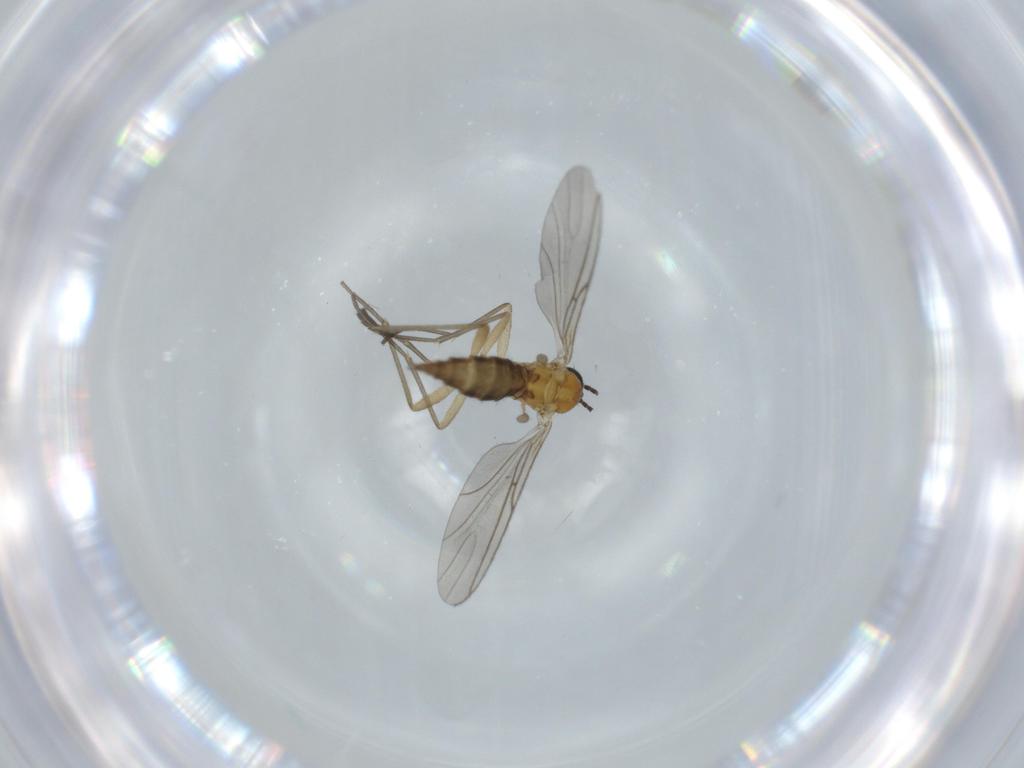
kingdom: Animalia
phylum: Arthropoda
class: Insecta
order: Diptera
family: Sciaridae
